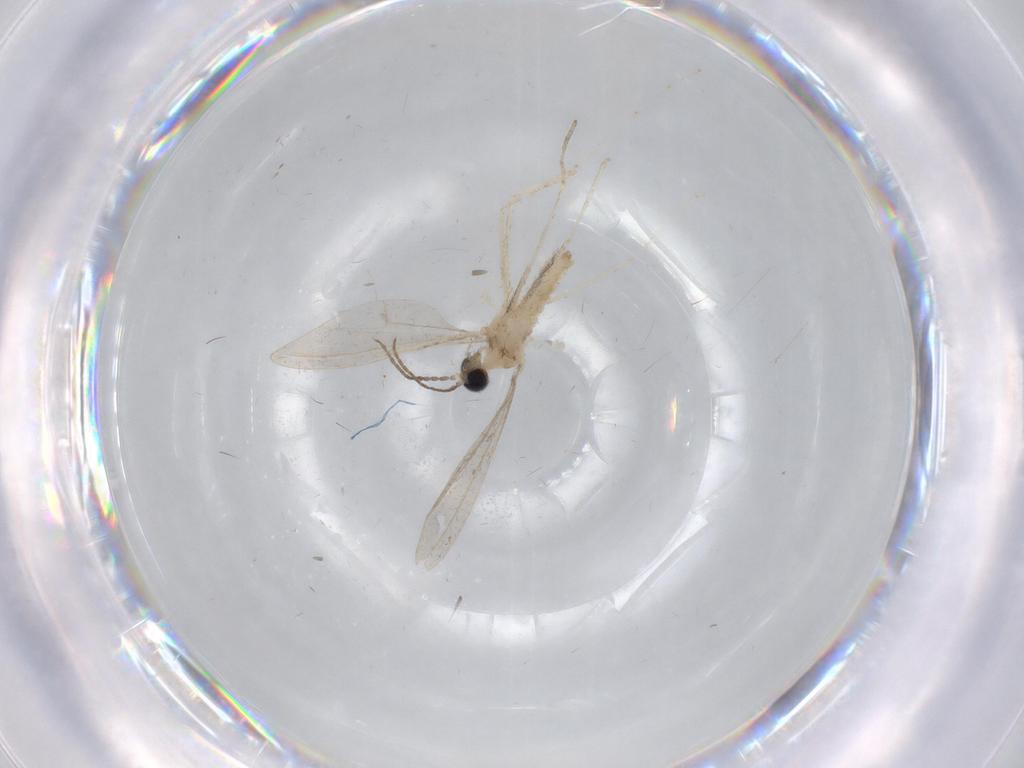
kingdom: Animalia
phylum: Arthropoda
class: Insecta
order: Diptera
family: Cecidomyiidae
